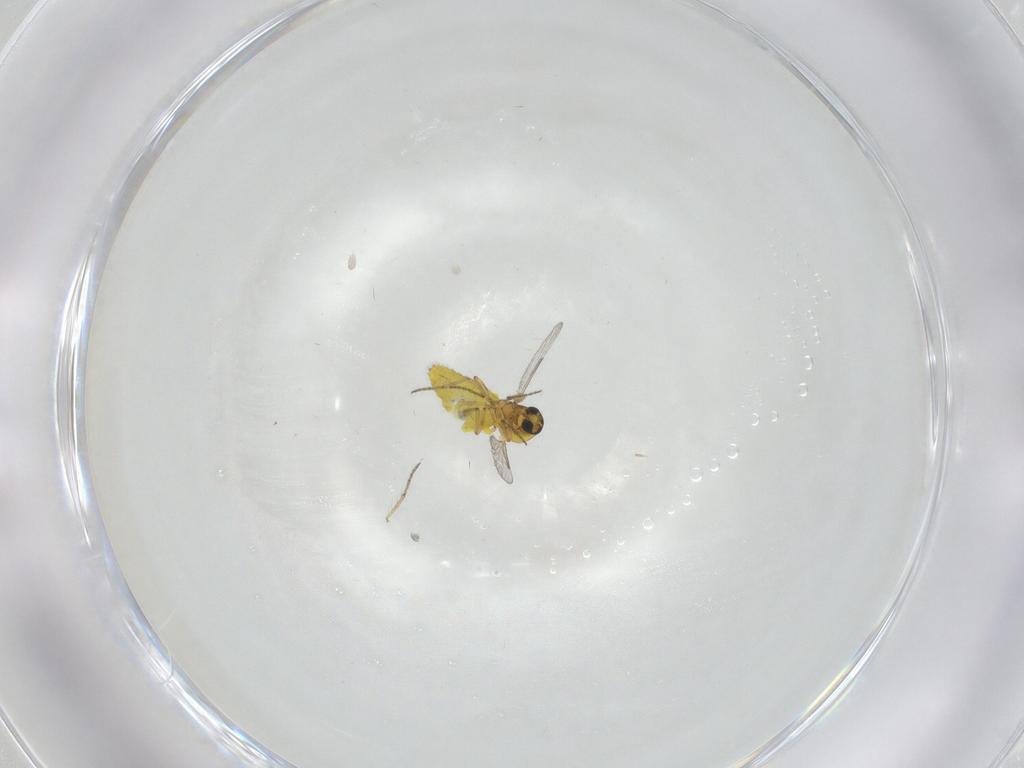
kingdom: Animalia
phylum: Arthropoda
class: Insecta
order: Diptera
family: Ceratopogonidae
